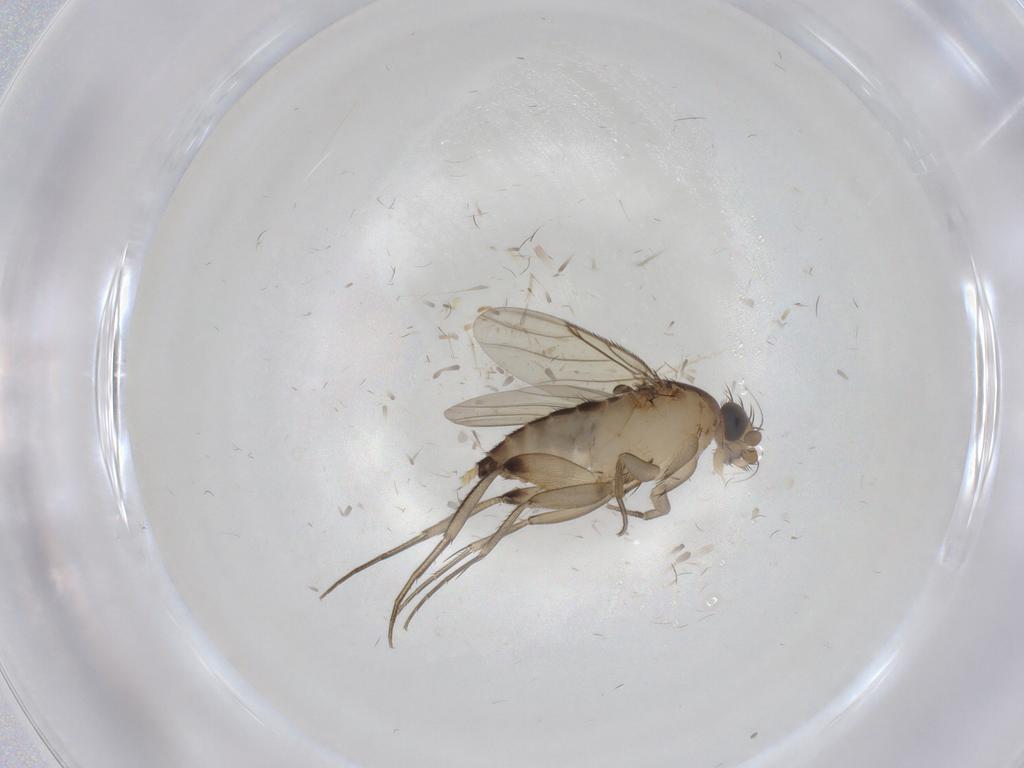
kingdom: Animalia
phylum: Arthropoda
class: Insecta
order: Diptera
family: Phoridae
